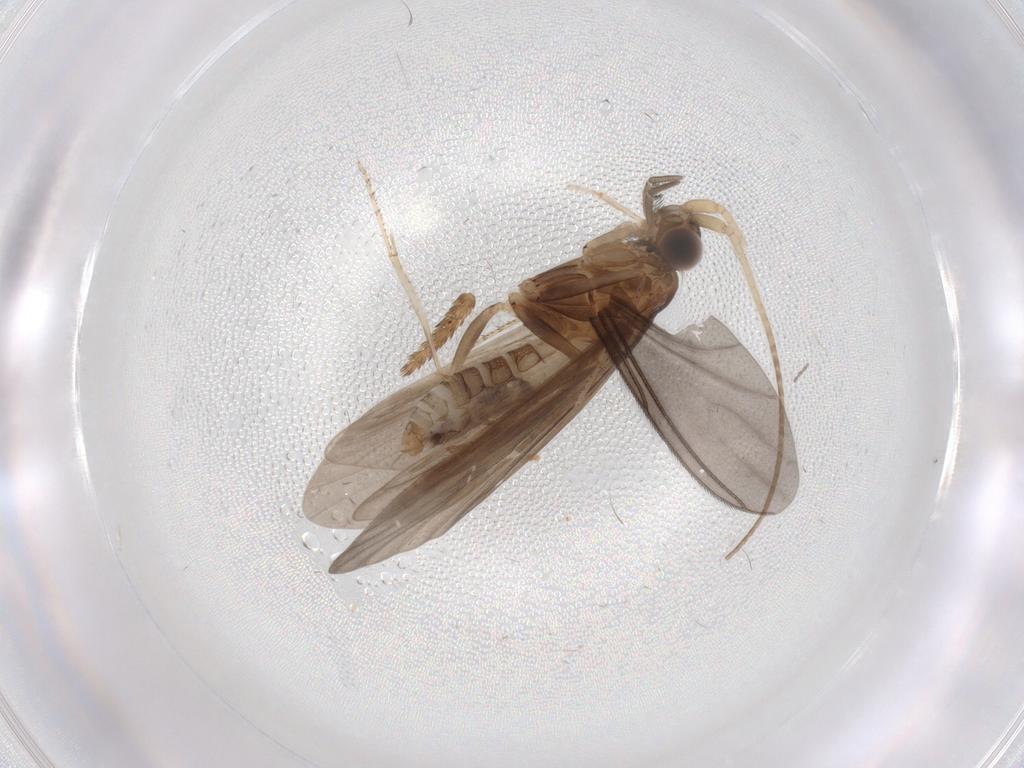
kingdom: Animalia
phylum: Arthropoda
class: Insecta
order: Trichoptera
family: Helicopsychidae
